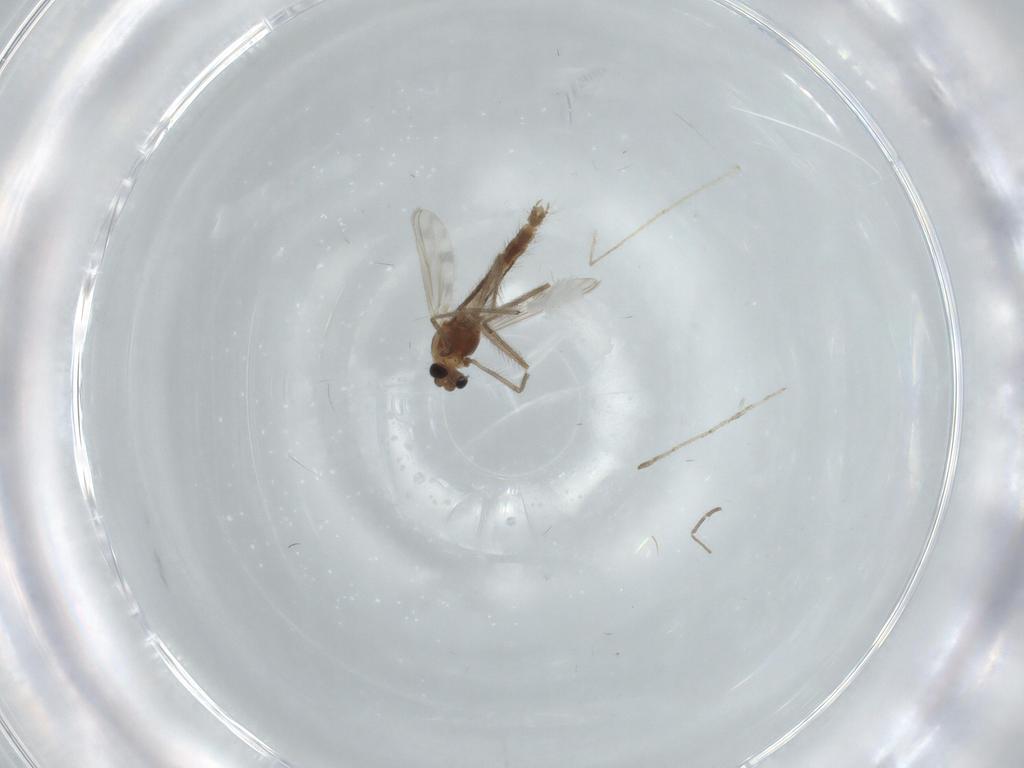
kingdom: Animalia
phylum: Arthropoda
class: Insecta
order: Diptera
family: Chironomidae
